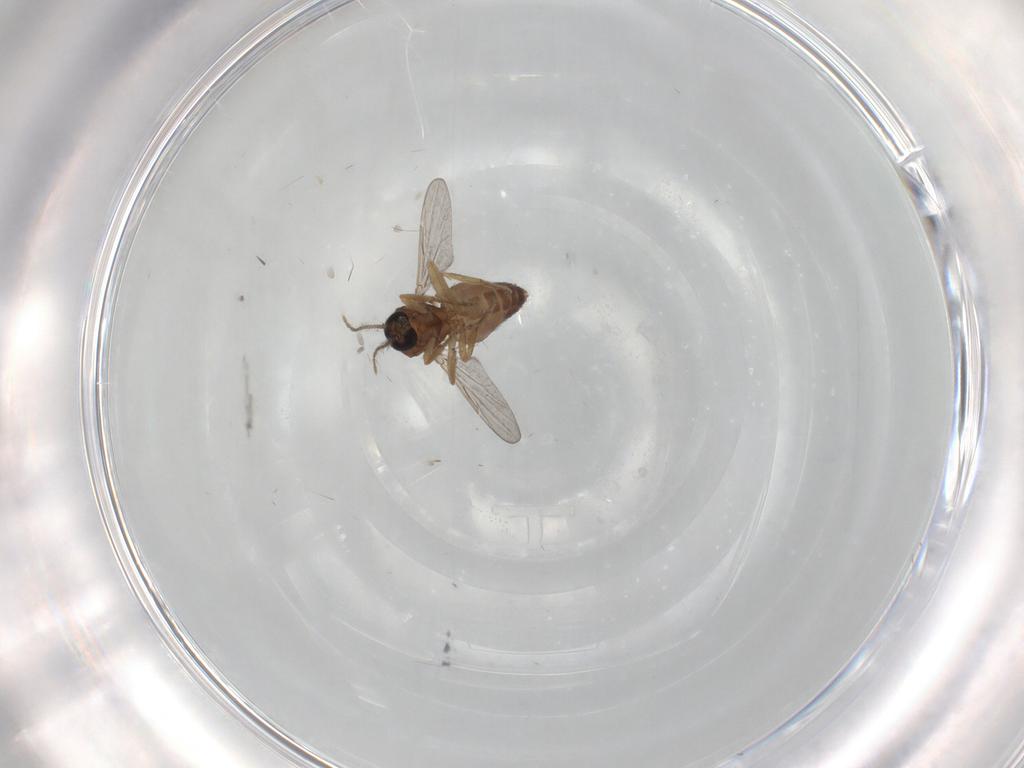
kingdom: Animalia
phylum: Arthropoda
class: Insecta
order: Diptera
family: Ceratopogonidae
